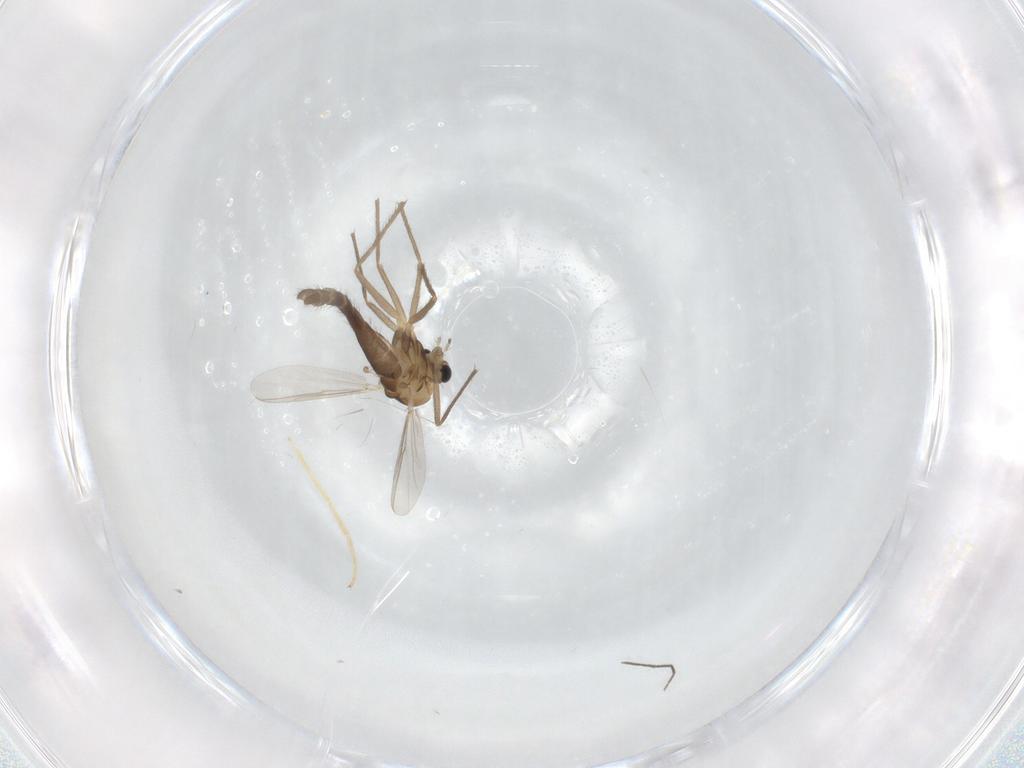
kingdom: Animalia
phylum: Arthropoda
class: Insecta
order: Diptera
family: Chironomidae
